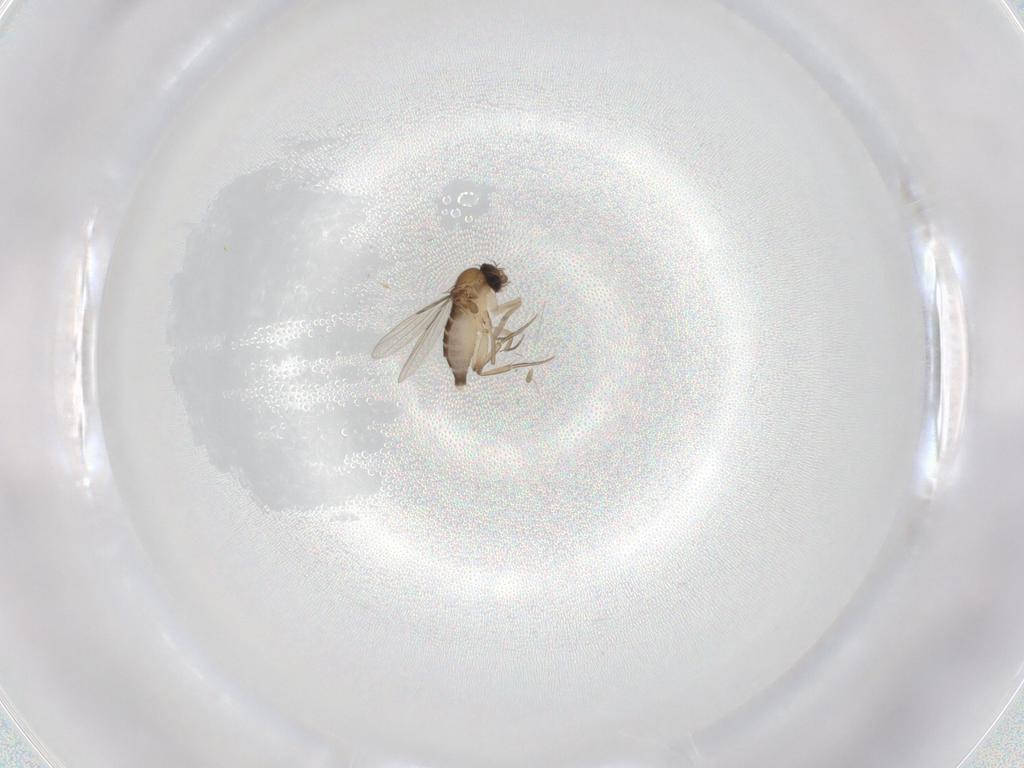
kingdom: Animalia
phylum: Arthropoda
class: Insecta
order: Diptera
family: Phoridae
